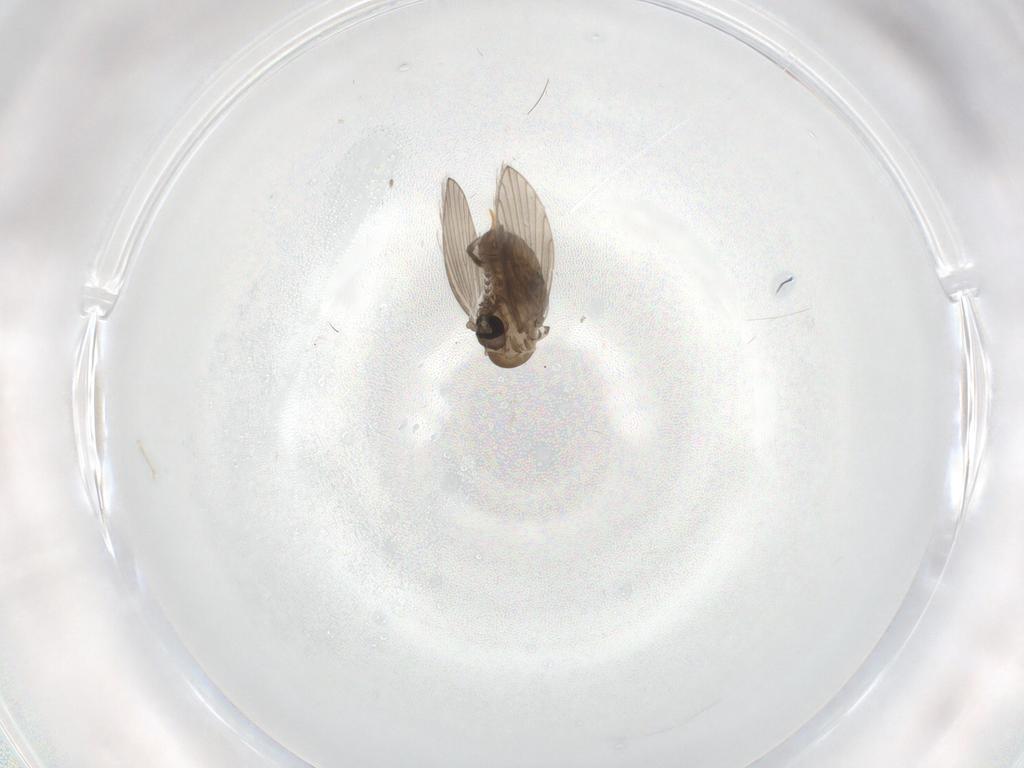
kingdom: Animalia
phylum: Arthropoda
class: Insecta
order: Diptera
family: Psychodidae
